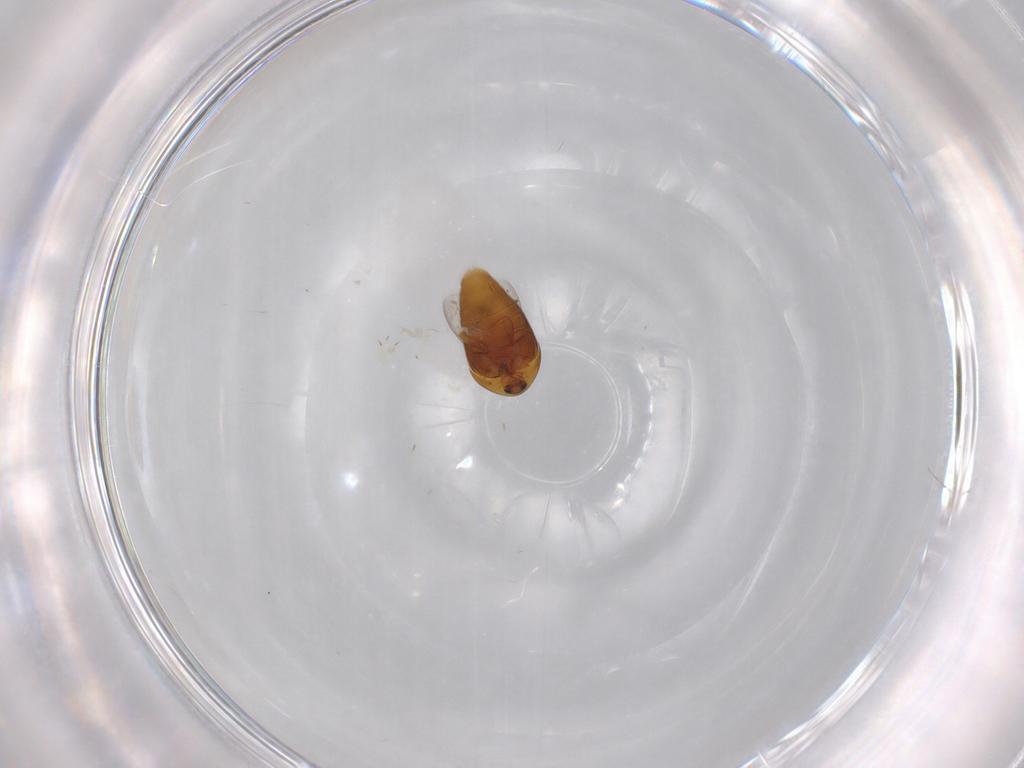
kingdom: Animalia
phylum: Arthropoda
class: Insecta
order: Coleoptera
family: Corylophidae
